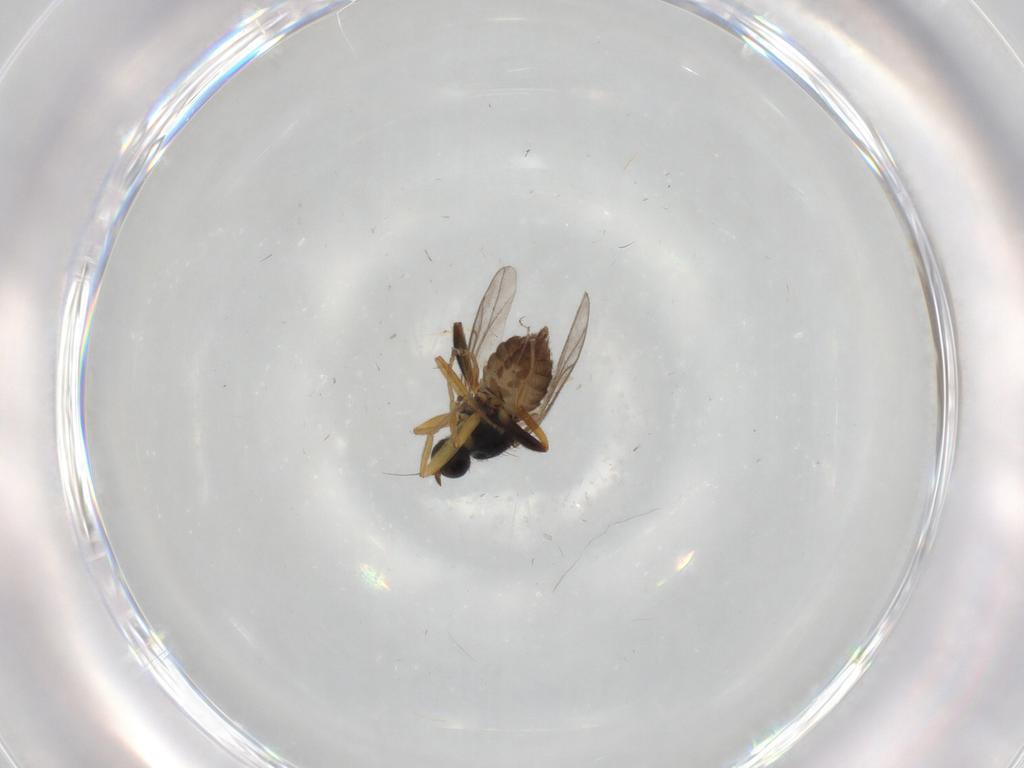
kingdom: Animalia
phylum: Arthropoda
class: Insecta
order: Diptera
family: Hybotidae
